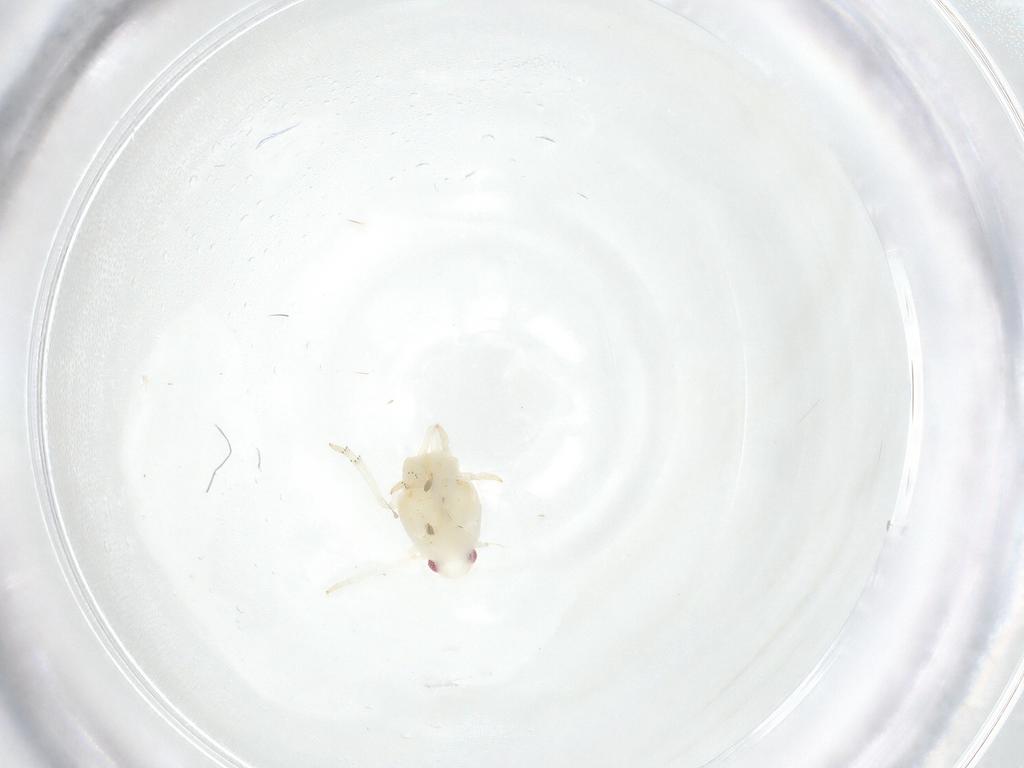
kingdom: Animalia
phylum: Arthropoda
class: Insecta
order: Hemiptera
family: Flatidae
